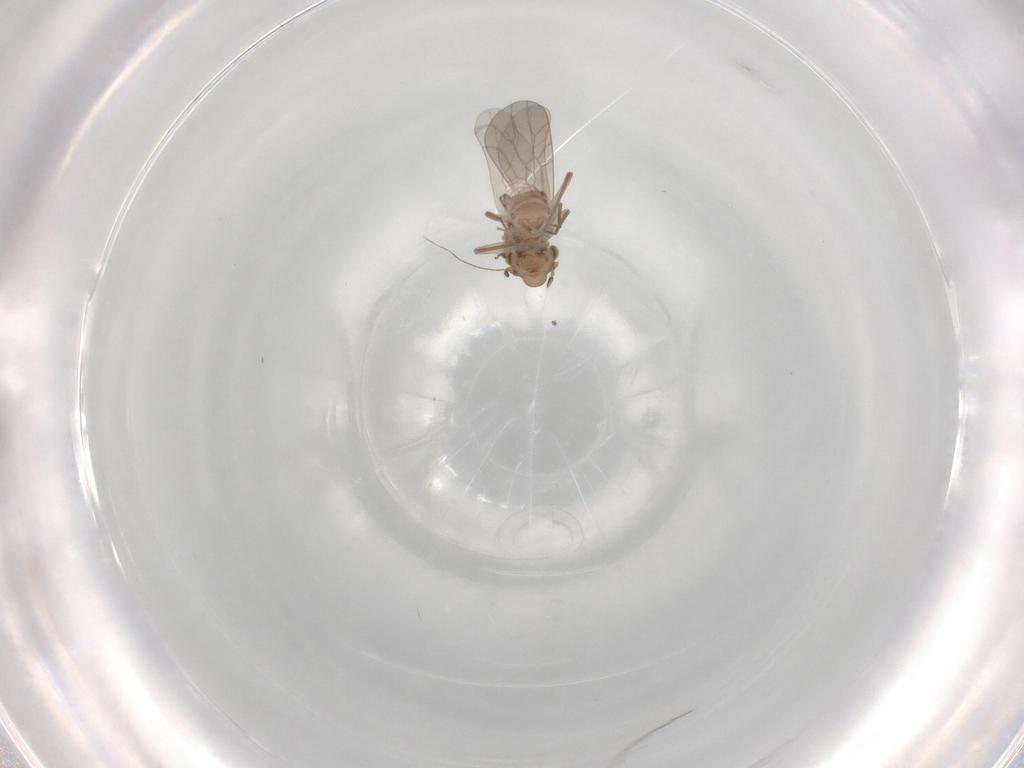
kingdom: Animalia
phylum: Arthropoda
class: Insecta
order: Psocodea
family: Lepidopsocidae
